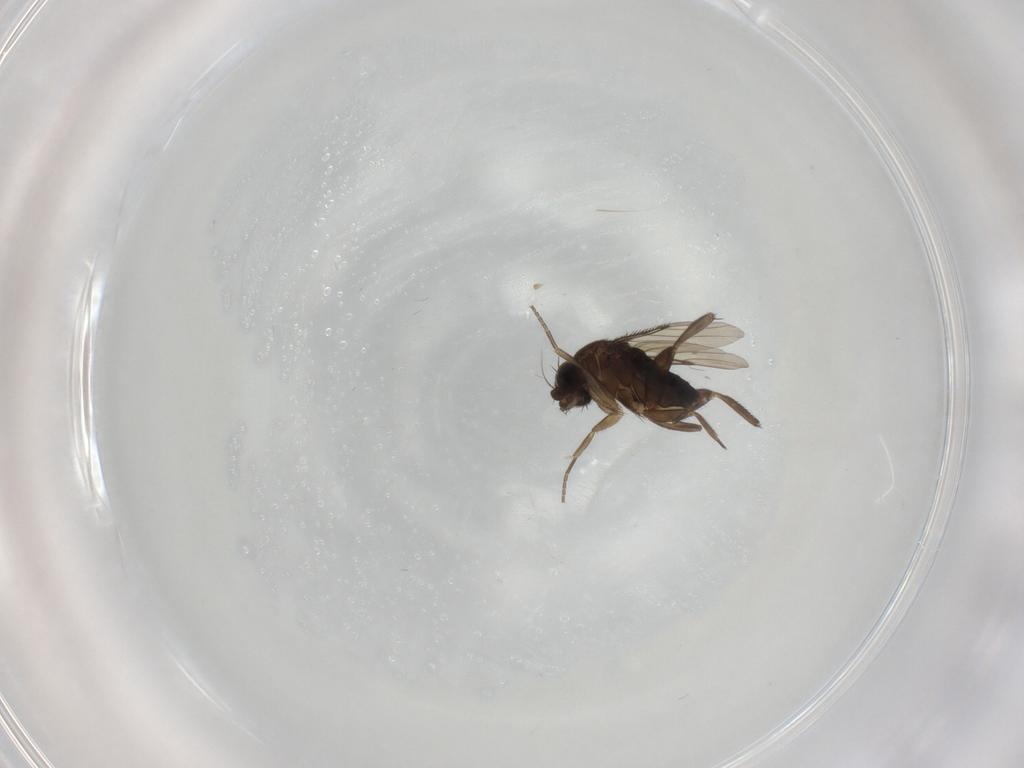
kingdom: Animalia
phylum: Arthropoda
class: Insecta
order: Diptera
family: Phoridae
